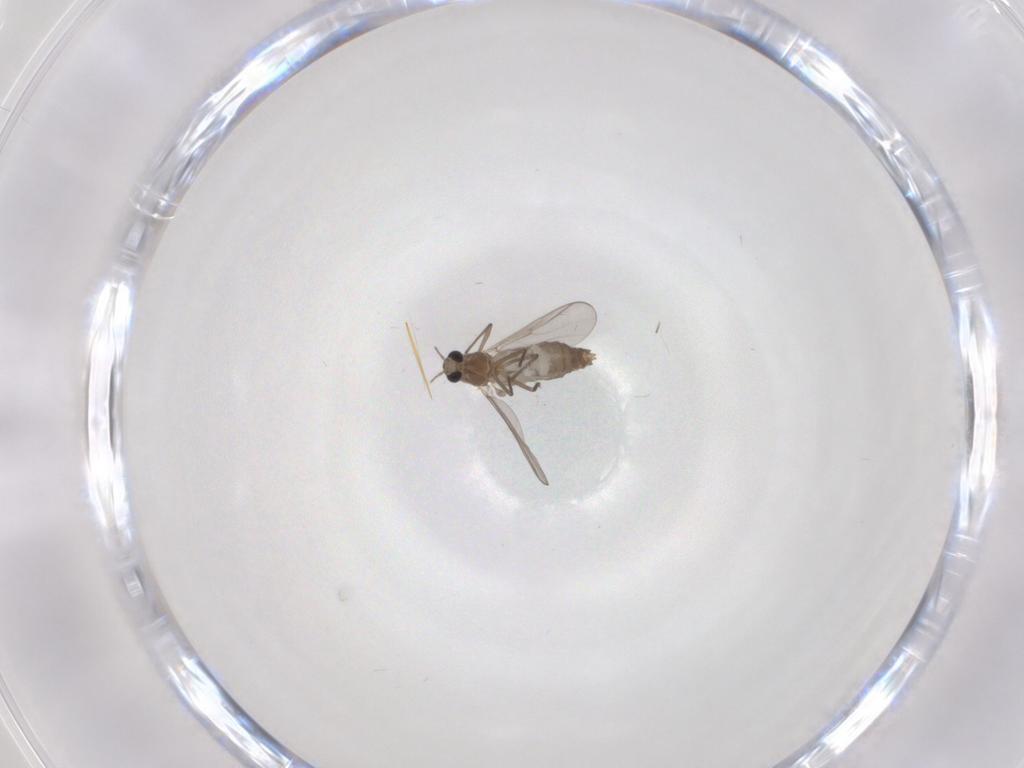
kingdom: Animalia
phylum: Arthropoda
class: Insecta
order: Diptera
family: Chironomidae
